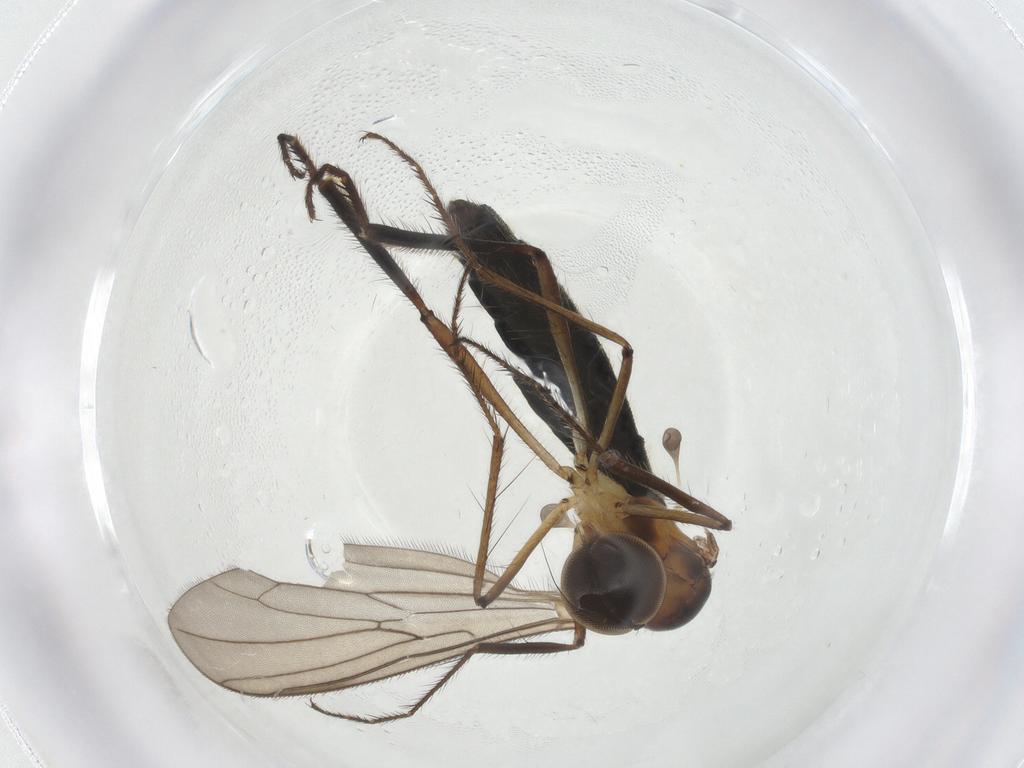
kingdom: Animalia
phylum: Arthropoda
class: Insecta
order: Diptera
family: Hybotidae
